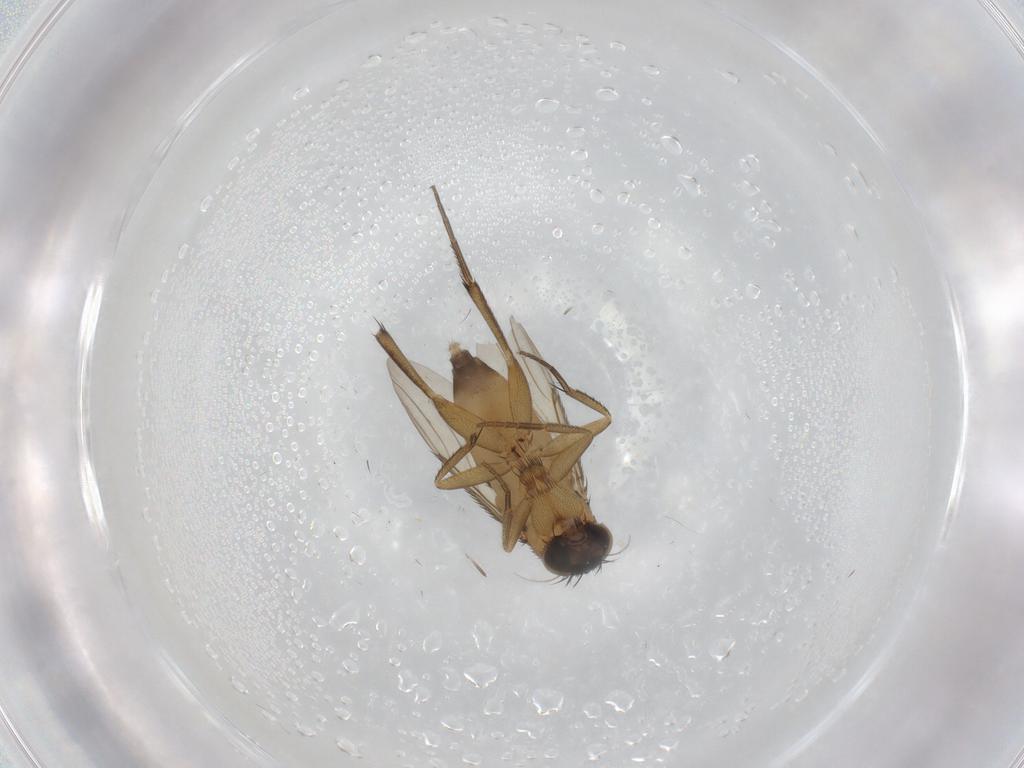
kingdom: Animalia
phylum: Arthropoda
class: Insecta
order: Diptera
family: Phoridae
